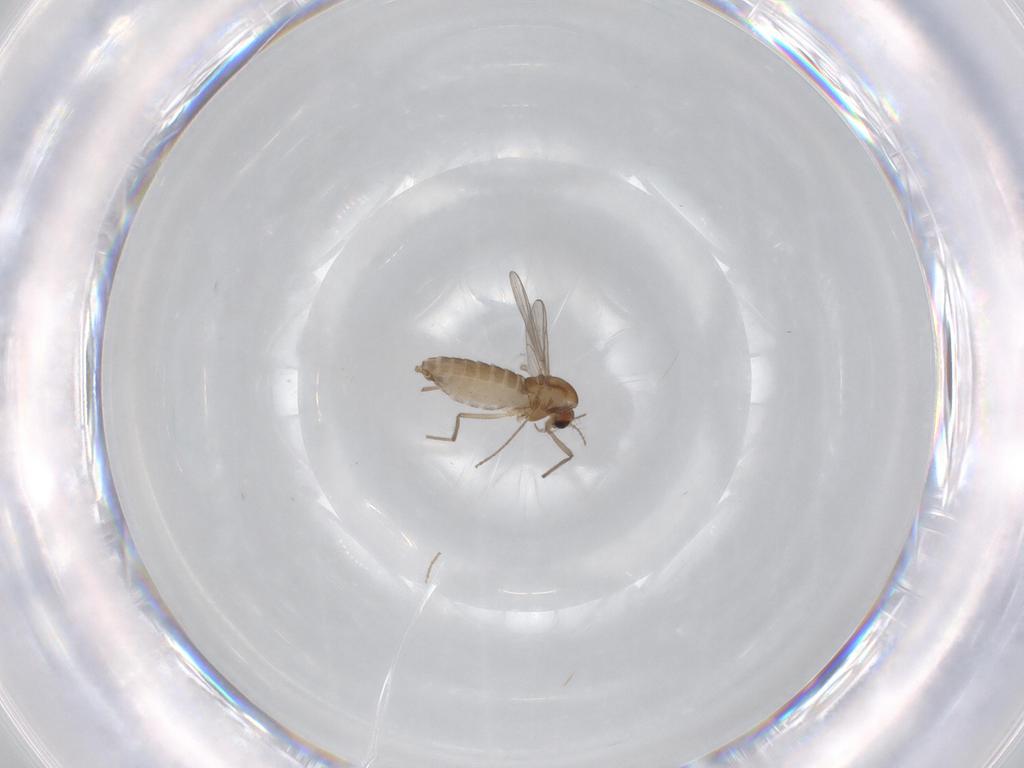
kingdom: Animalia
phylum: Arthropoda
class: Insecta
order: Diptera
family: Chironomidae
